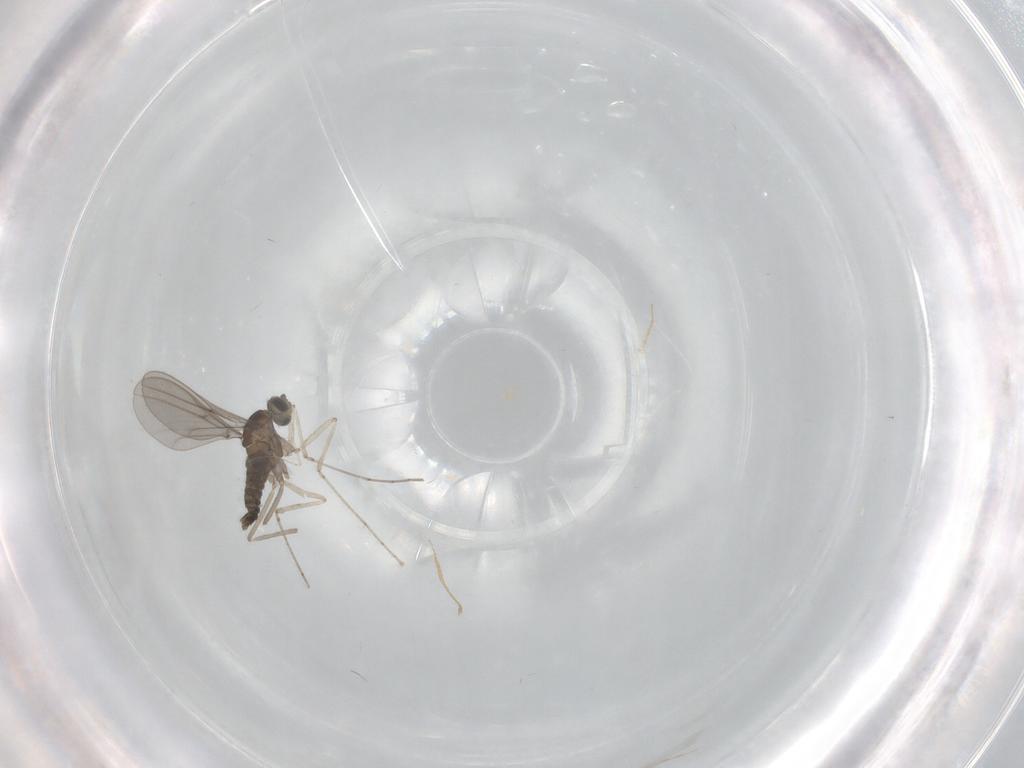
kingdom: Animalia
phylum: Arthropoda
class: Insecta
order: Diptera
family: Cecidomyiidae
